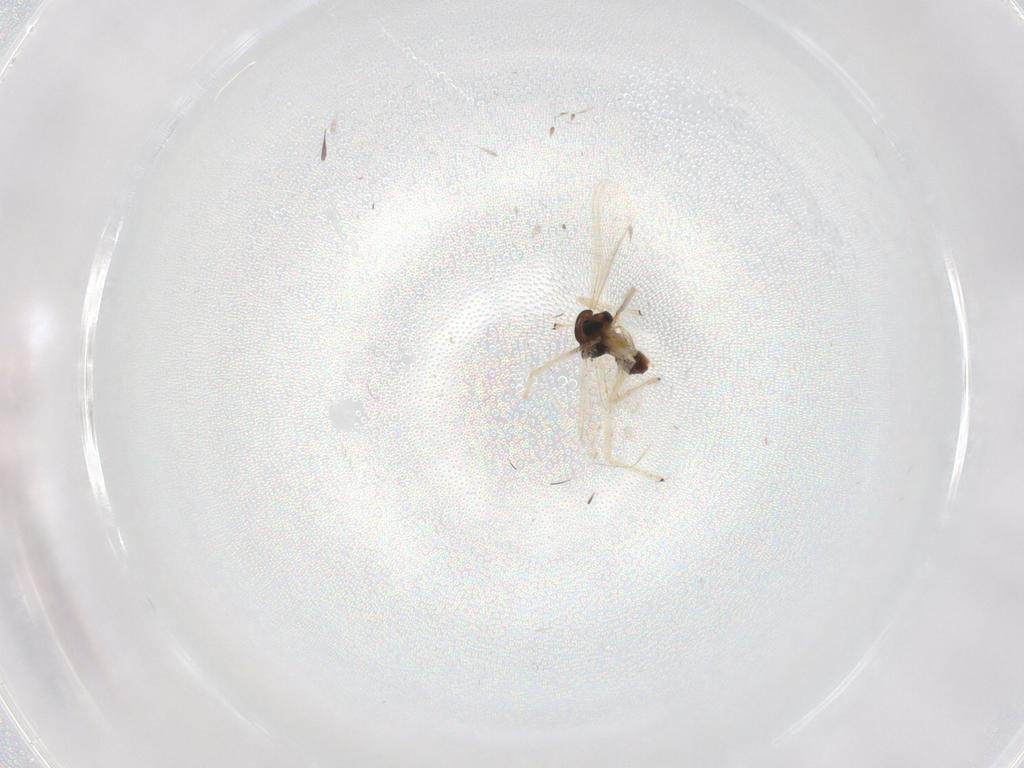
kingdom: Animalia
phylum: Arthropoda
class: Insecta
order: Diptera
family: Chironomidae
